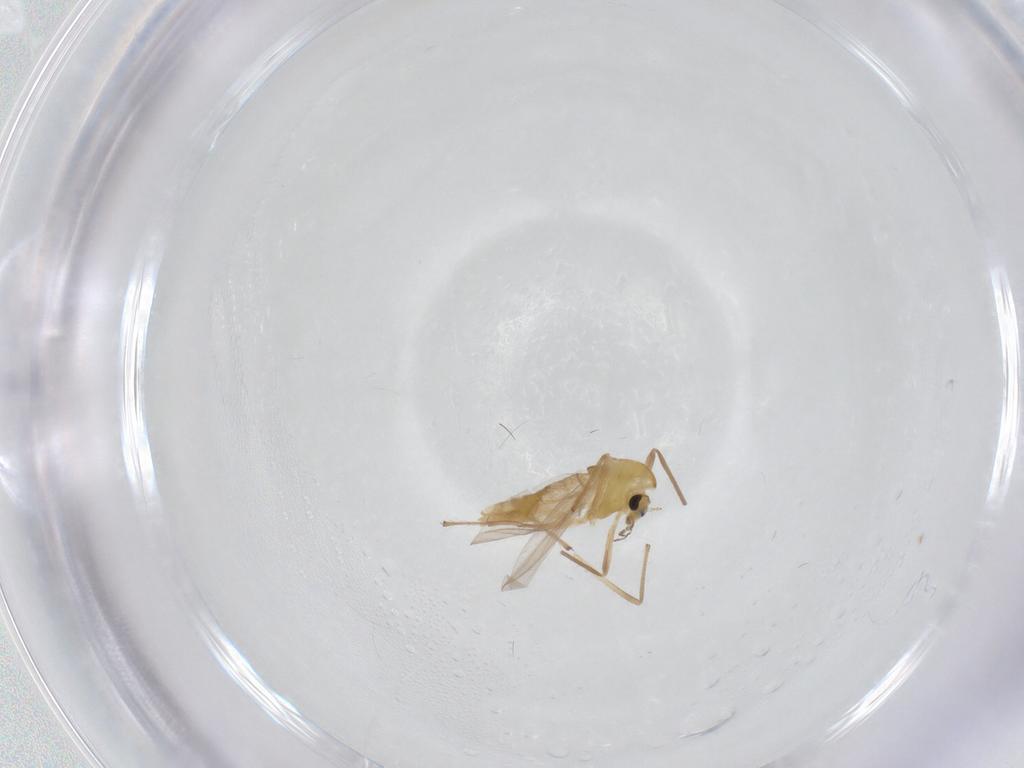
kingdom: Animalia
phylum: Arthropoda
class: Insecta
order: Diptera
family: Chironomidae
